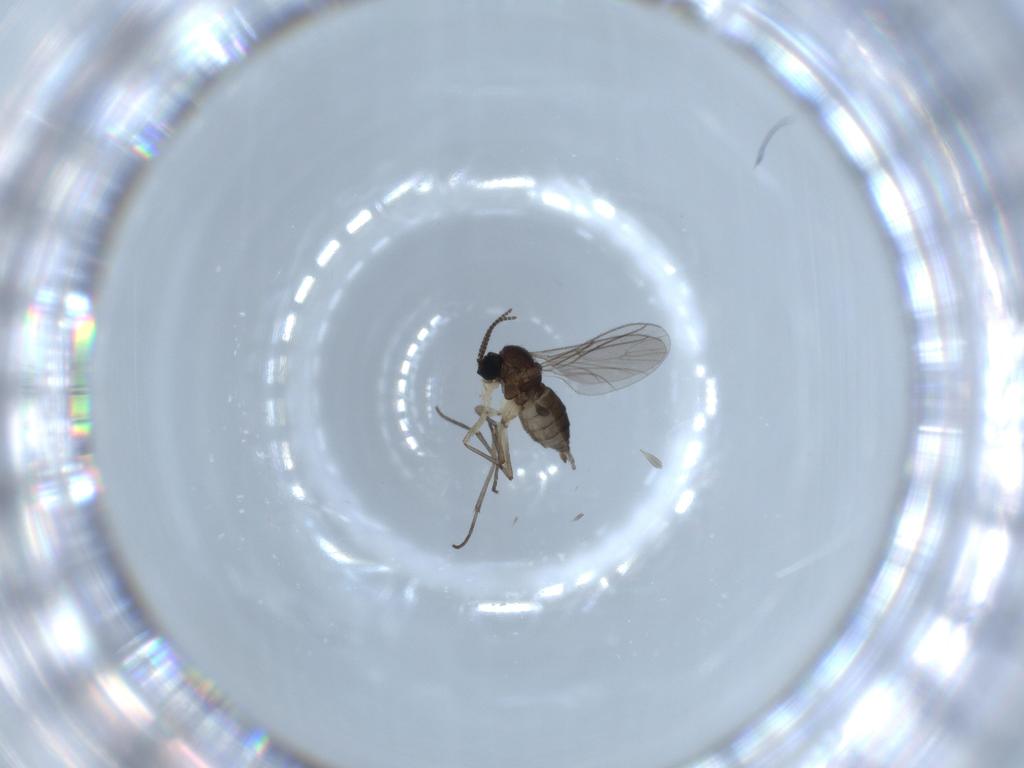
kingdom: Animalia
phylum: Arthropoda
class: Insecta
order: Diptera
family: Sciaridae
